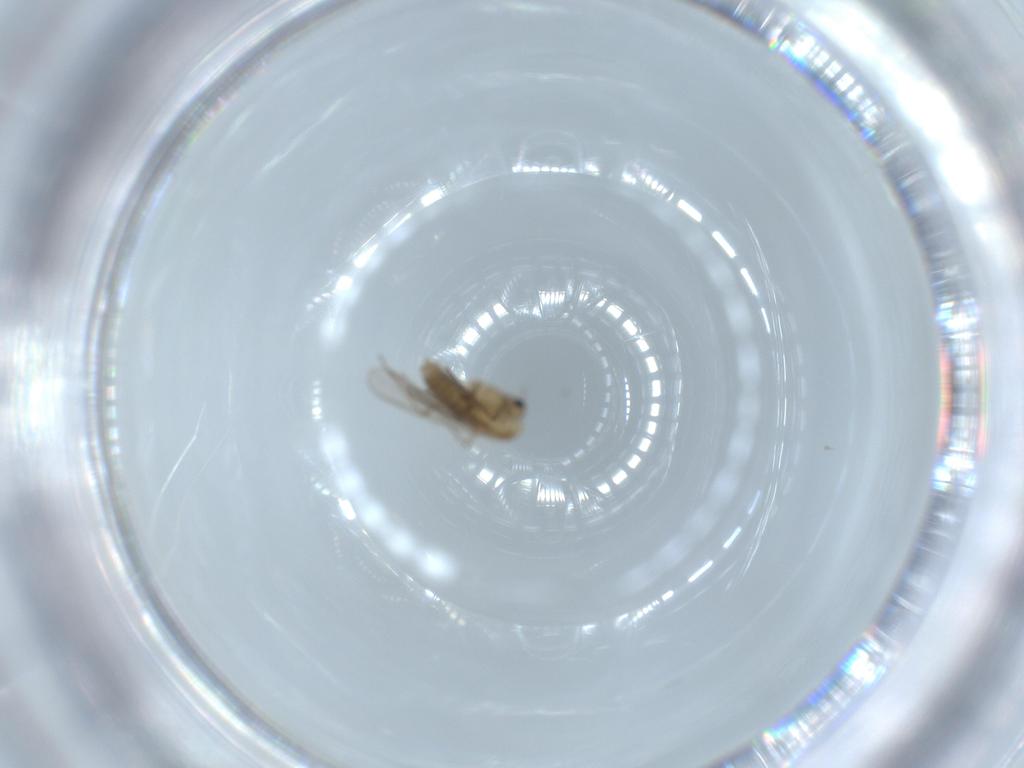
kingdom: Animalia
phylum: Arthropoda
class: Insecta
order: Diptera
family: Chironomidae
